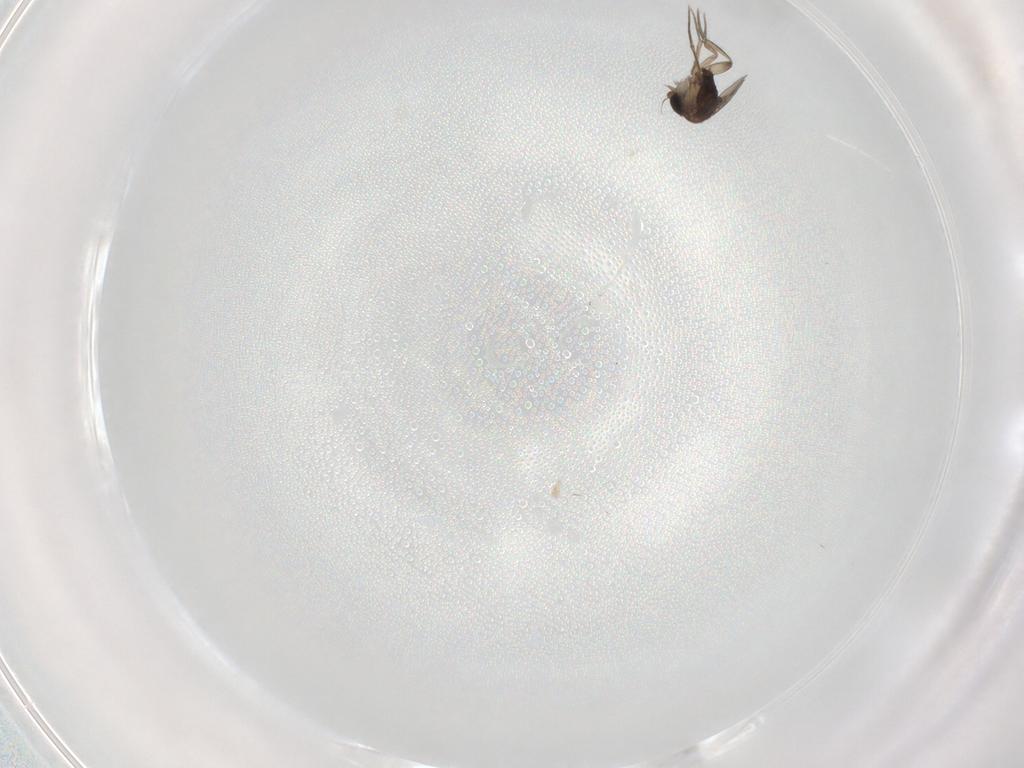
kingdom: Animalia
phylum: Arthropoda
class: Insecta
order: Diptera
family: Phoridae
